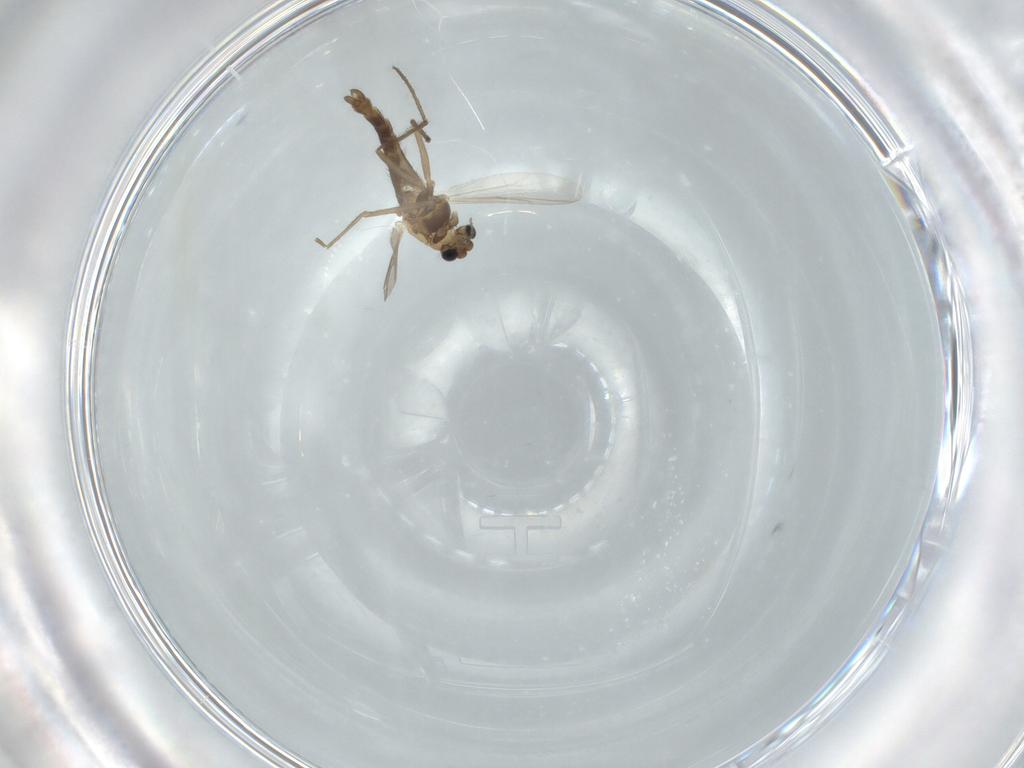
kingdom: Animalia
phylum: Arthropoda
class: Insecta
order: Diptera
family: Chironomidae
